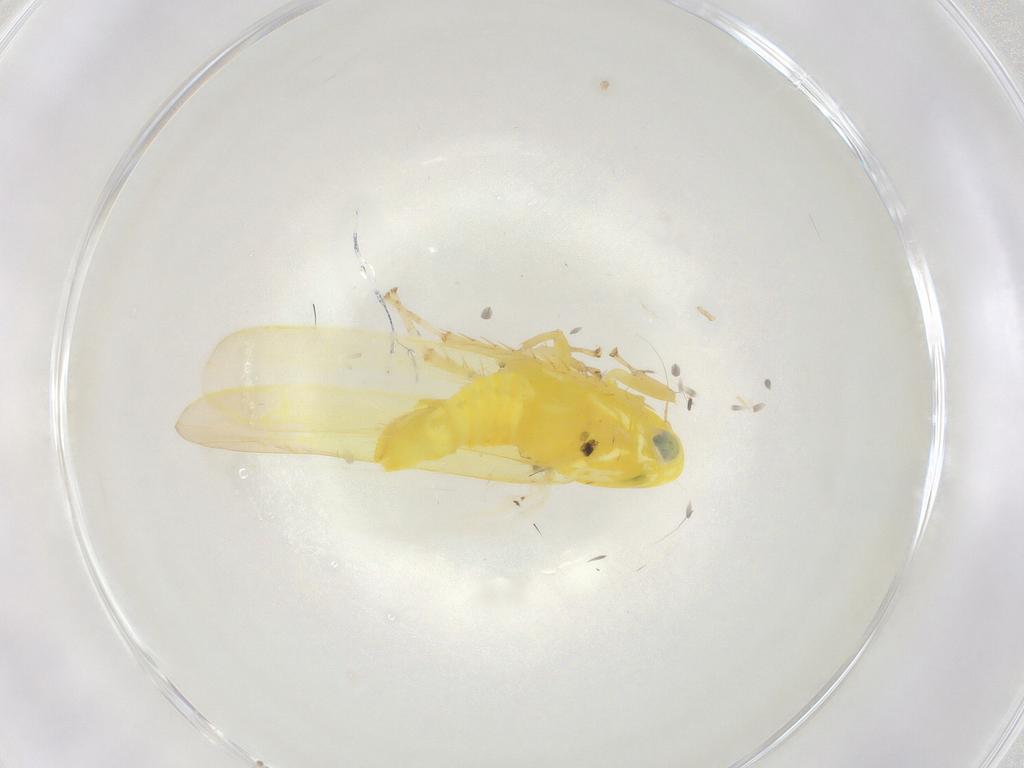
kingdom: Animalia
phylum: Arthropoda
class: Insecta
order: Hemiptera
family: Cicadellidae
